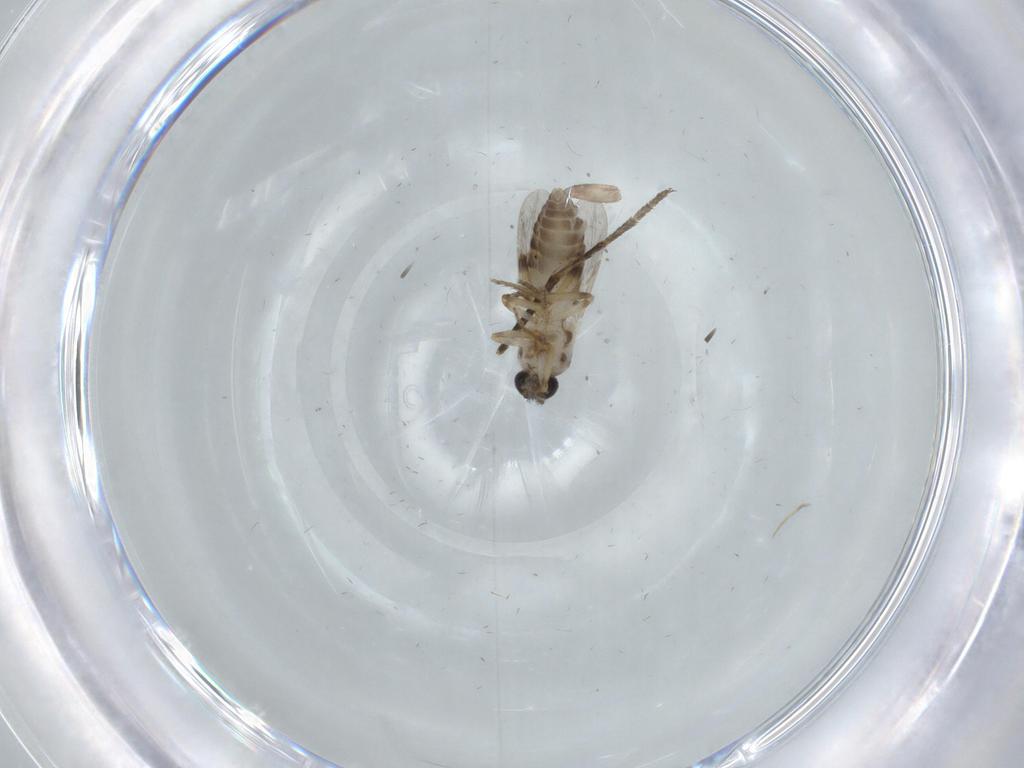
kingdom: Animalia
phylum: Arthropoda
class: Insecta
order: Diptera
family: Ceratopogonidae
